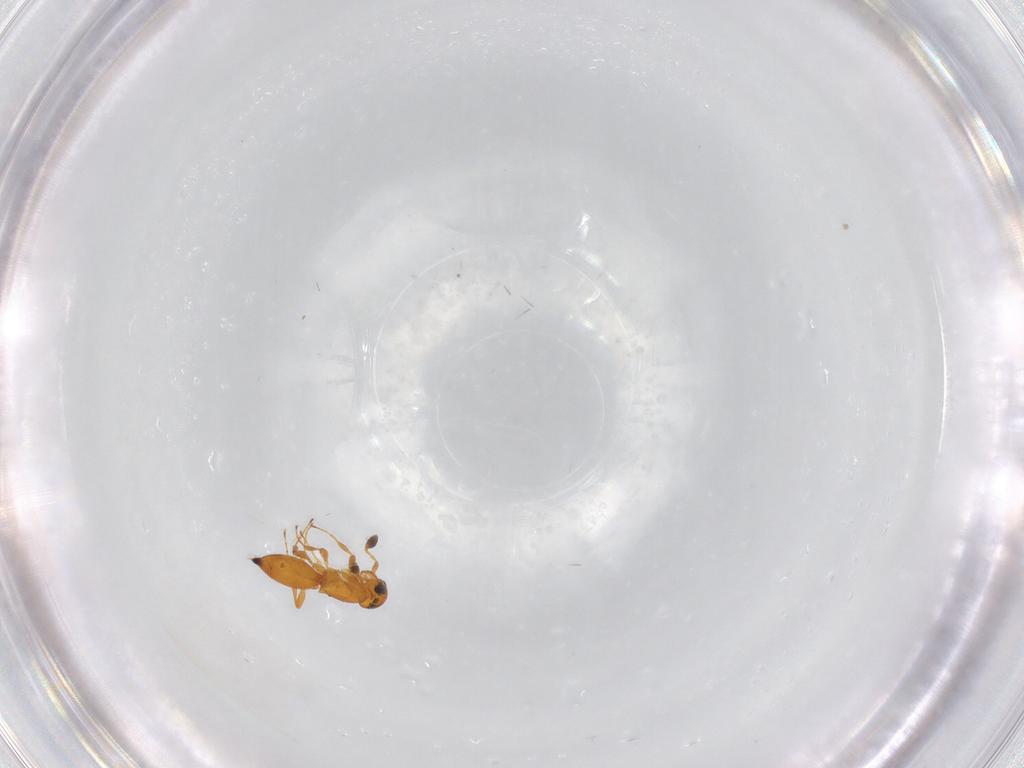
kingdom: Animalia
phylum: Arthropoda
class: Insecta
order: Hymenoptera
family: Platygastridae
